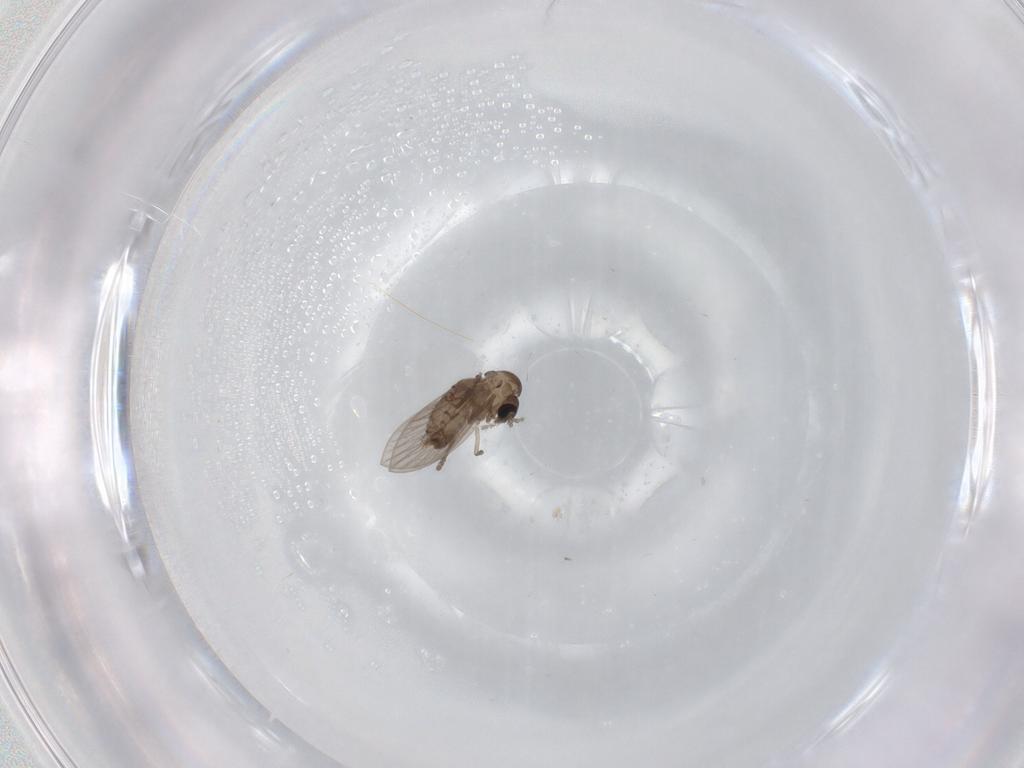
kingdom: Animalia
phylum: Arthropoda
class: Insecta
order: Diptera
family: Psychodidae
